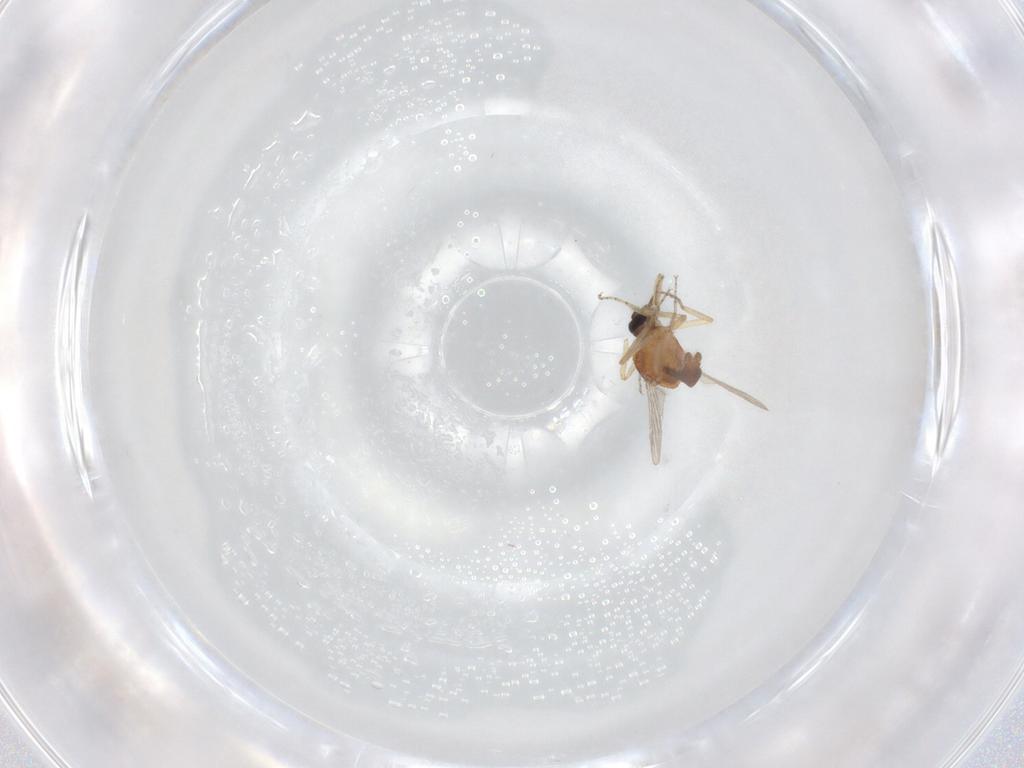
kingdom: Animalia
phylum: Arthropoda
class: Insecta
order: Diptera
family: Ceratopogonidae
